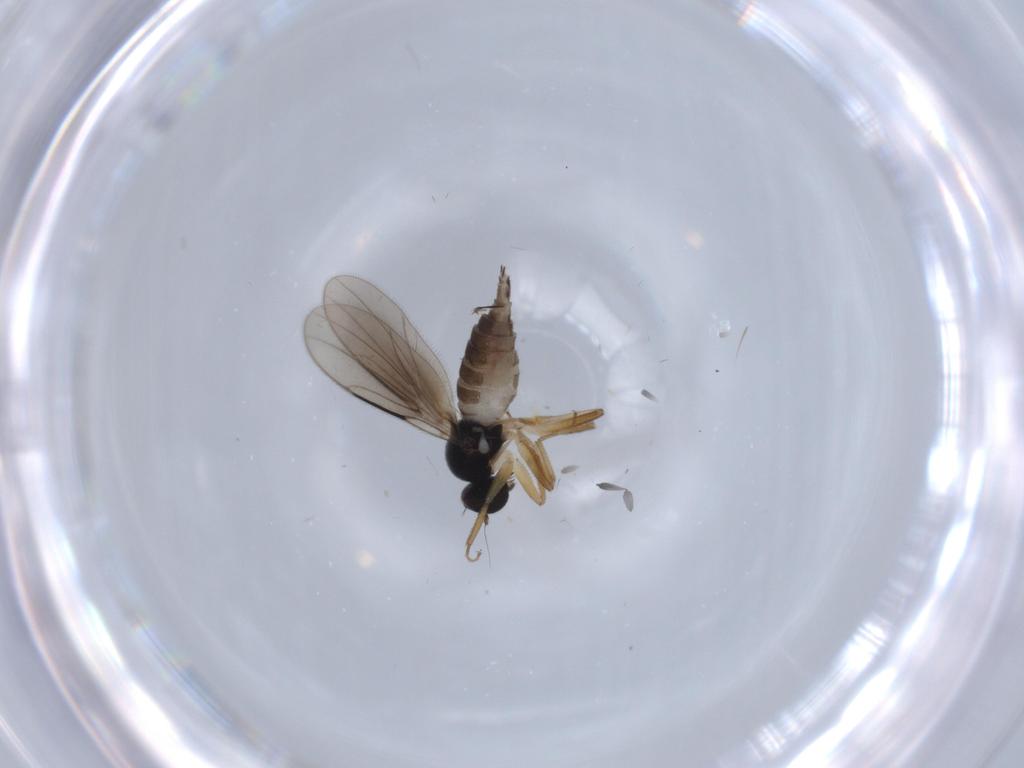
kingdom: Animalia
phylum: Arthropoda
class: Insecta
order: Diptera
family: Hybotidae
